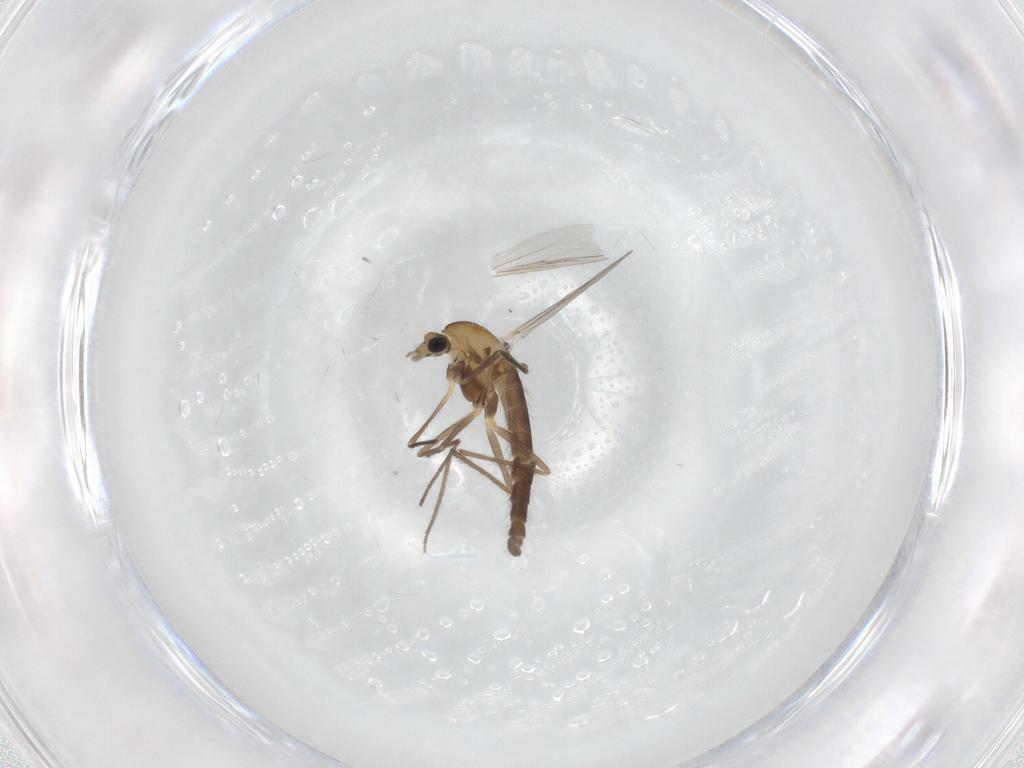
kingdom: Animalia
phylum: Arthropoda
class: Insecta
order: Diptera
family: Chironomidae
